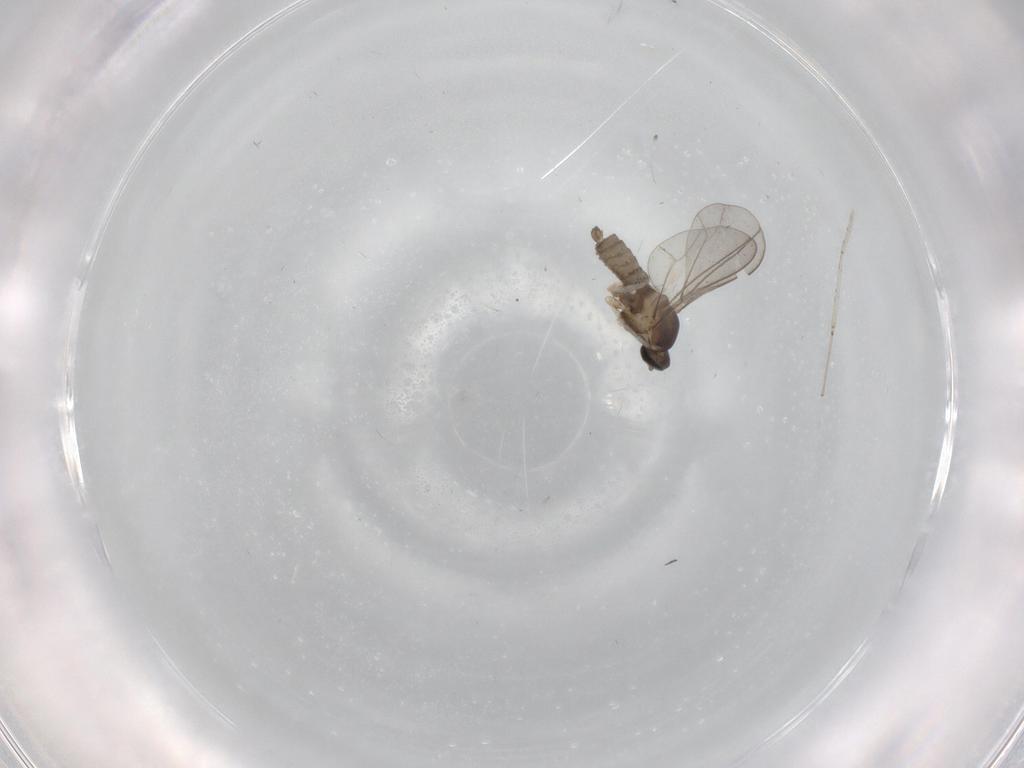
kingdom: Animalia
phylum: Arthropoda
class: Insecta
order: Diptera
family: Cecidomyiidae
